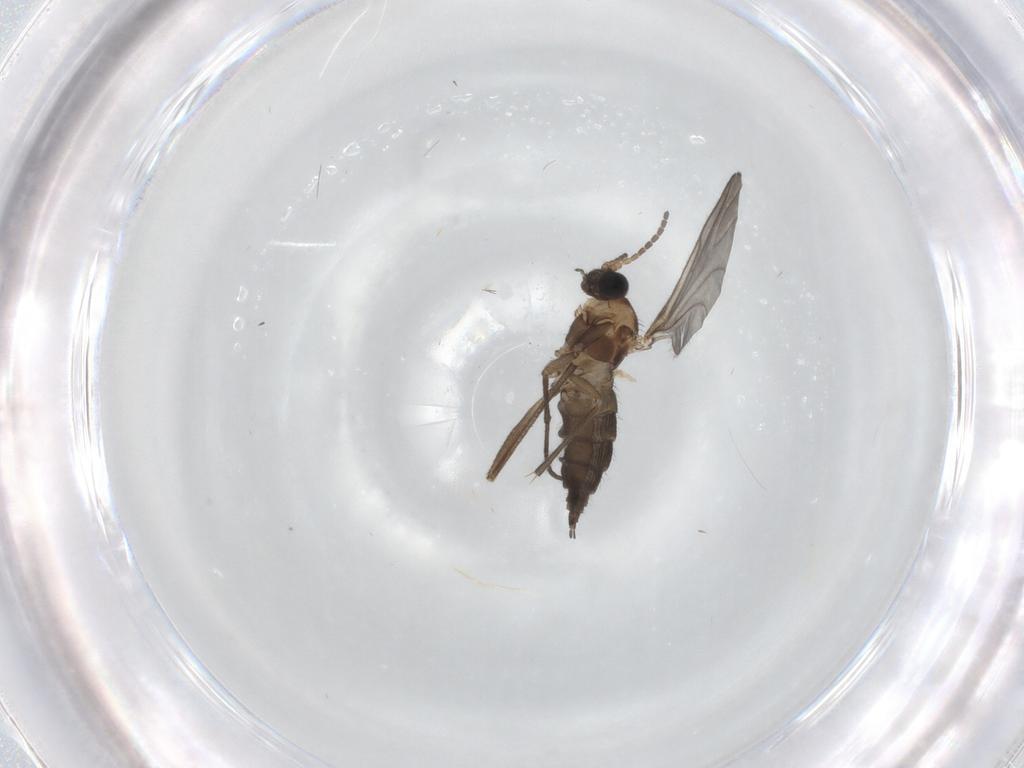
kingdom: Animalia
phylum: Arthropoda
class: Insecta
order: Diptera
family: Sciaridae
